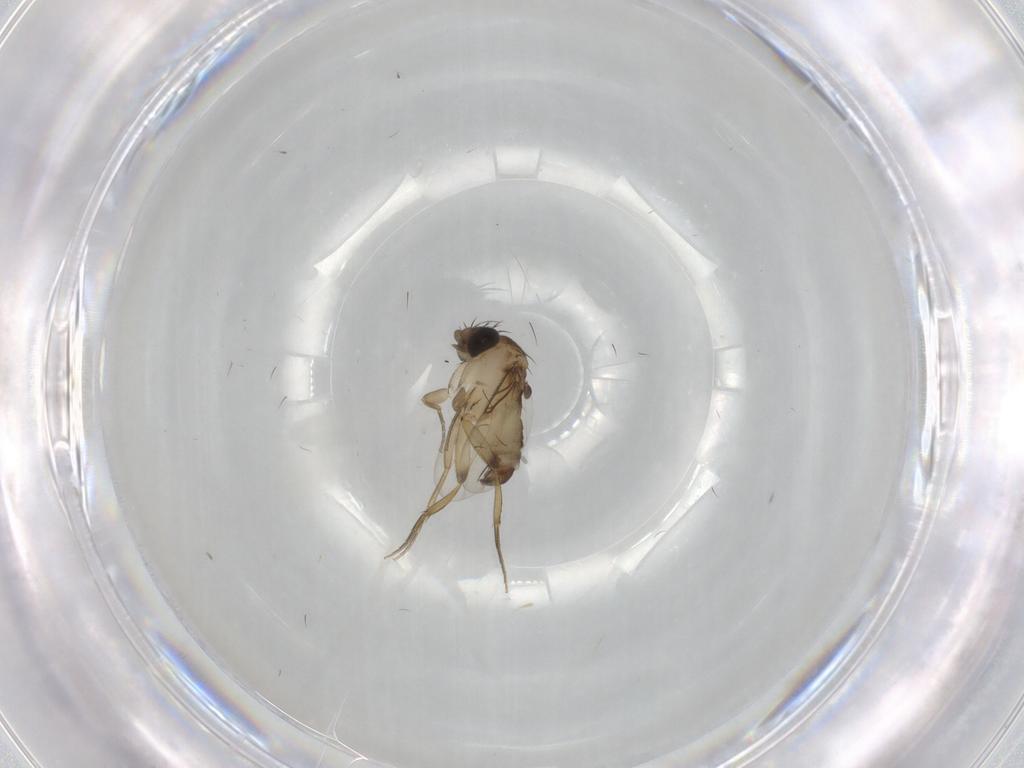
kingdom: Animalia
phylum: Arthropoda
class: Insecta
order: Diptera
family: Phoridae
